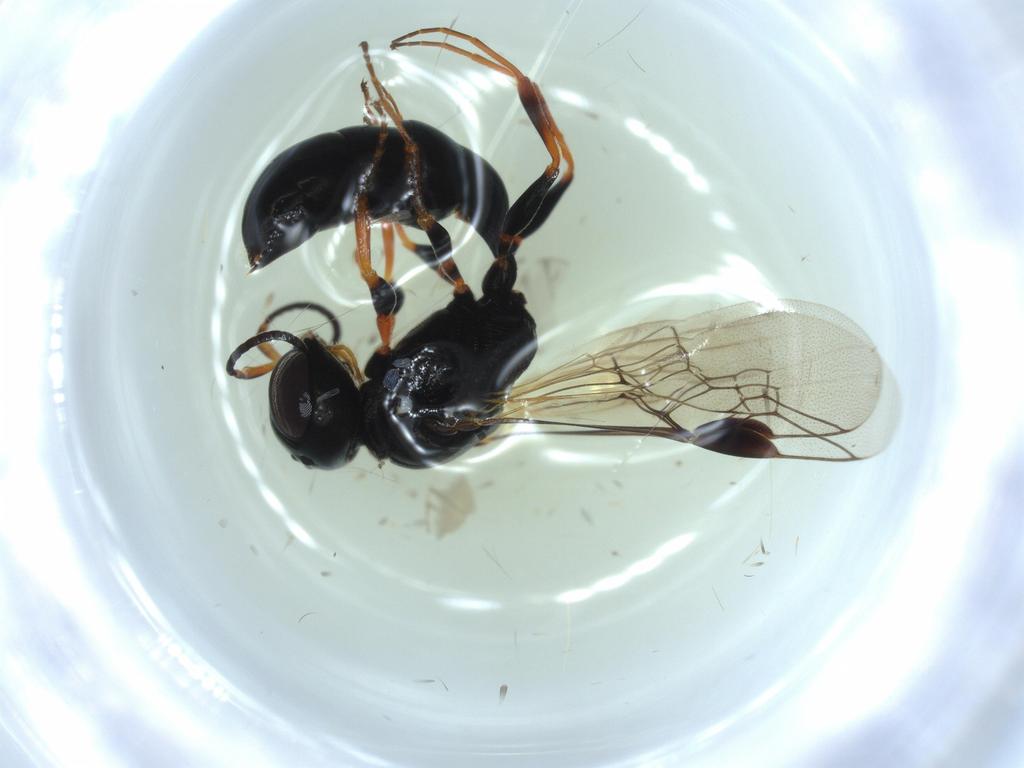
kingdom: Animalia
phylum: Arthropoda
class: Insecta
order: Hymenoptera
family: Crabronidae
